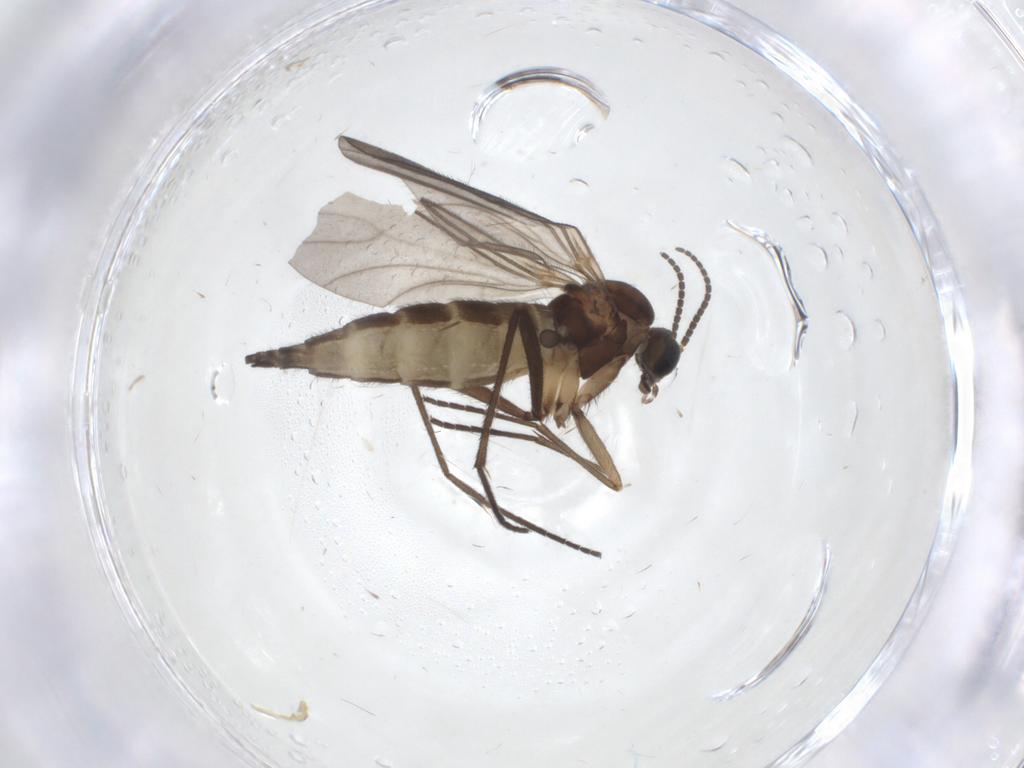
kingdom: Animalia
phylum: Arthropoda
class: Insecta
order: Diptera
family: Sciaridae
